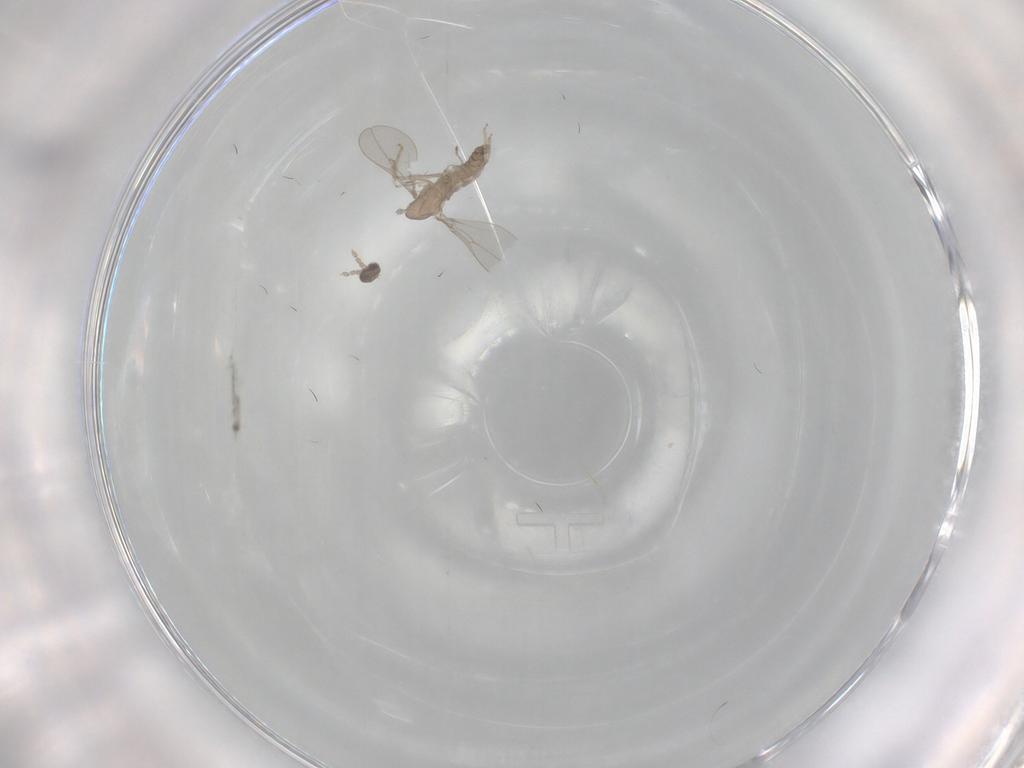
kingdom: Animalia
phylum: Arthropoda
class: Insecta
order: Diptera
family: Cecidomyiidae
